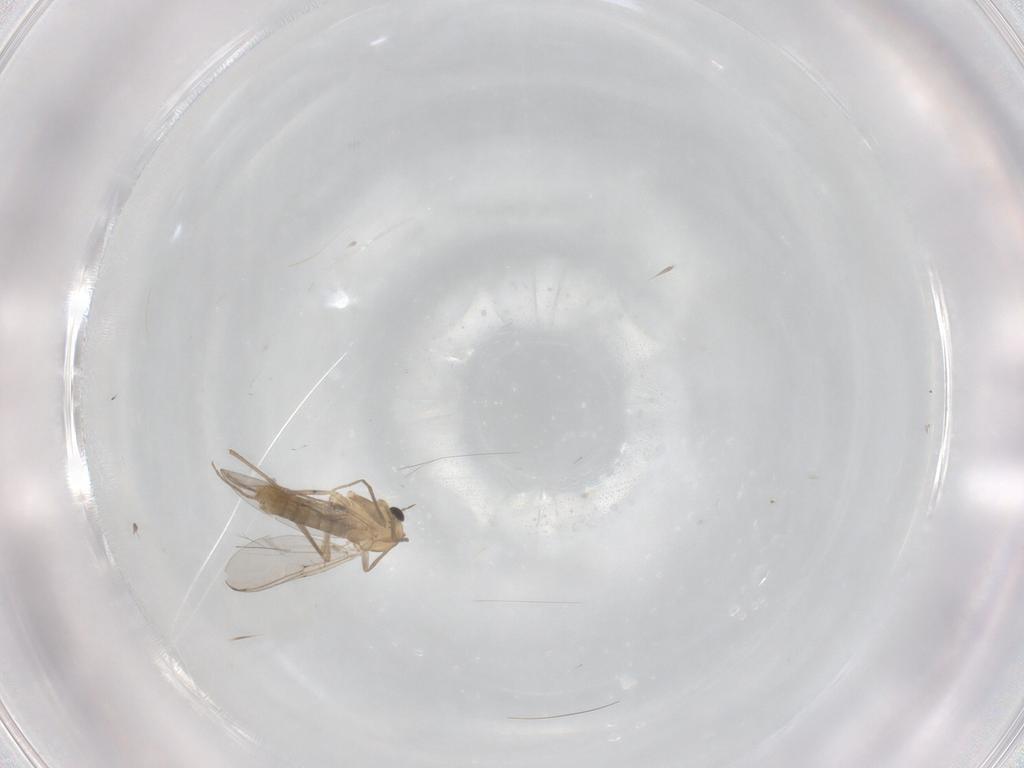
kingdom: Animalia
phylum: Arthropoda
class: Insecta
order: Diptera
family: Chironomidae
